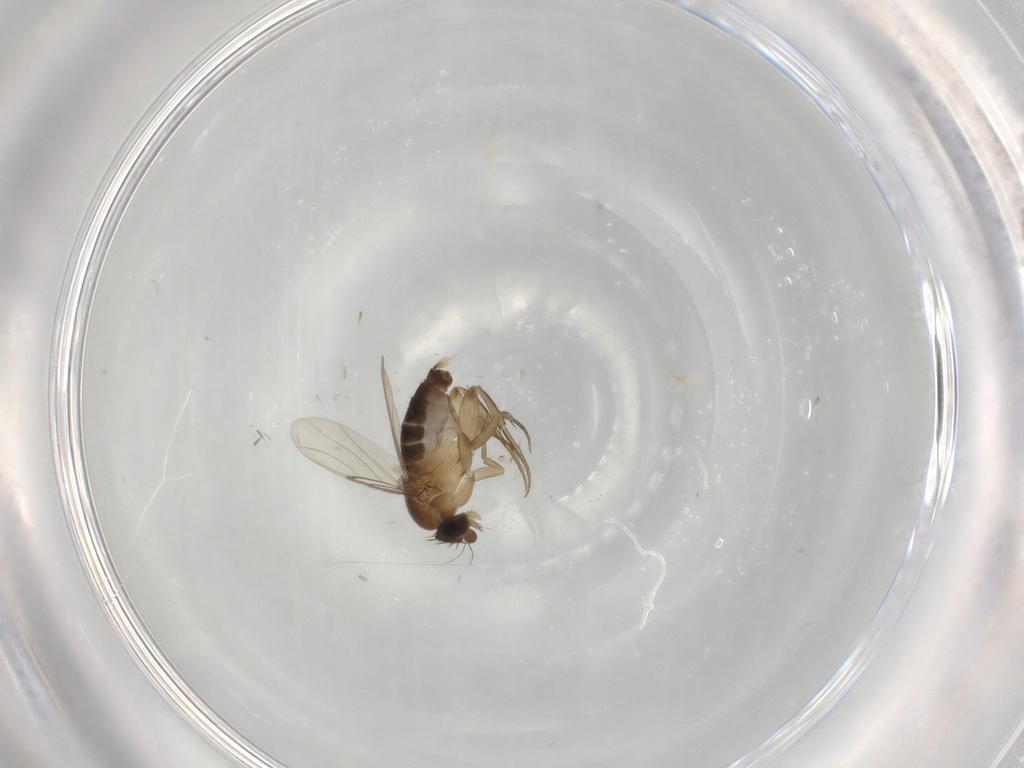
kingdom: Animalia
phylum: Arthropoda
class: Insecta
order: Diptera
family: Phoridae
